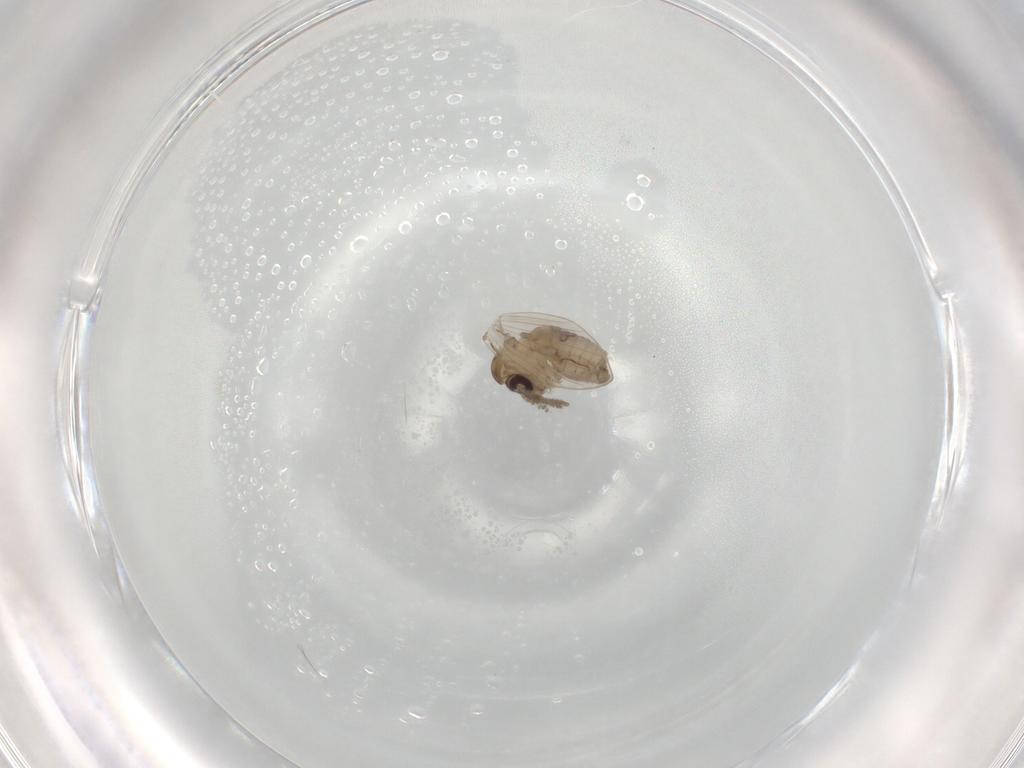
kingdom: Animalia
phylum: Arthropoda
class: Insecta
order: Diptera
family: Psychodidae
